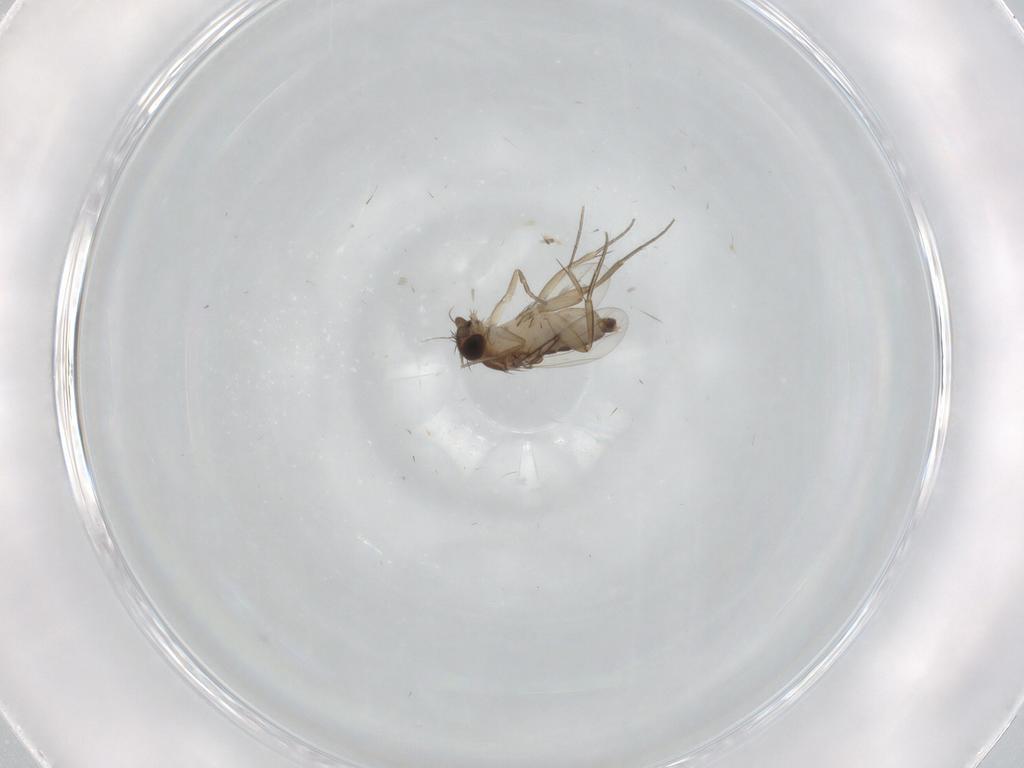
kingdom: Animalia
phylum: Arthropoda
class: Insecta
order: Diptera
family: Phoridae
